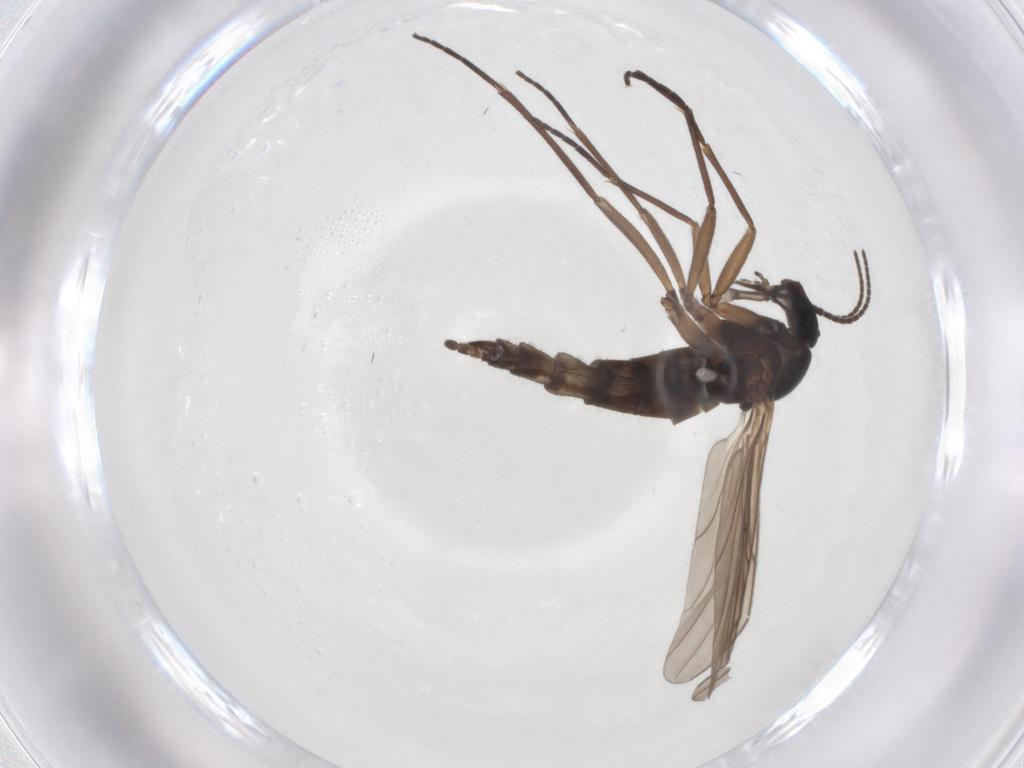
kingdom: Animalia
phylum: Arthropoda
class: Insecta
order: Diptera
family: Sciaridae
